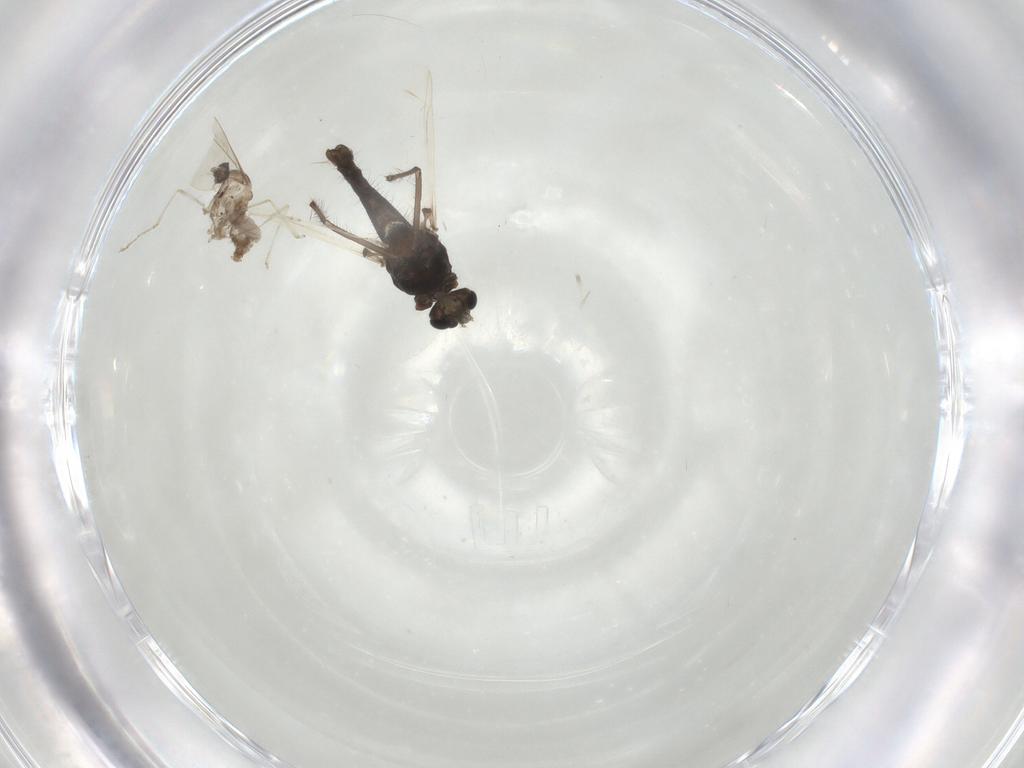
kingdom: Animalia
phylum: Arthropoda
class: Insecta
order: Diptera
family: Chironomidae
